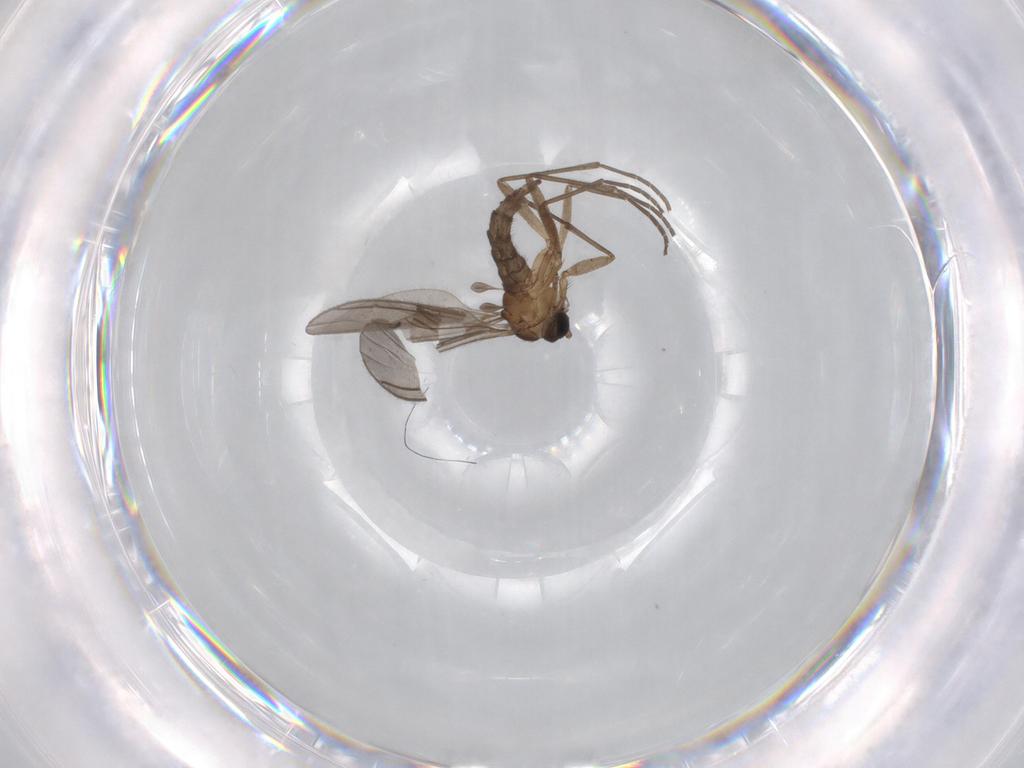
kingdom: Animalia
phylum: Arthropoda
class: Insecta
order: Diptera
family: Sciaridae
